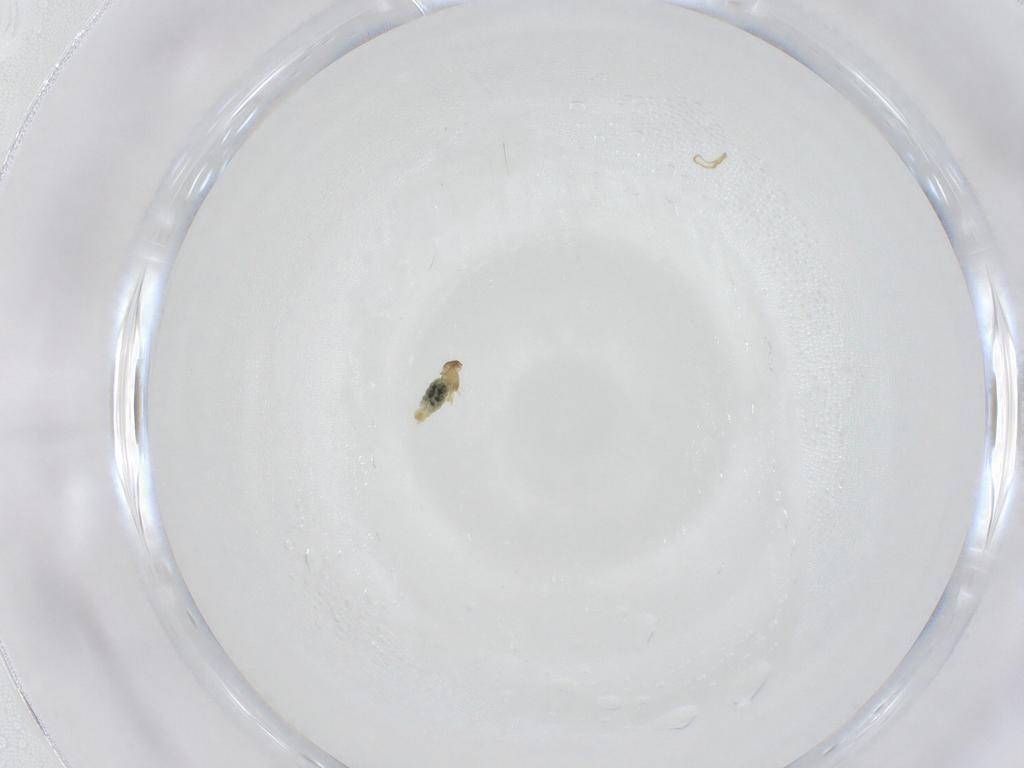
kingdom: Animalia
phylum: Arthropoda
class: Insecta
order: Diptera
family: Cecidomyiidae
